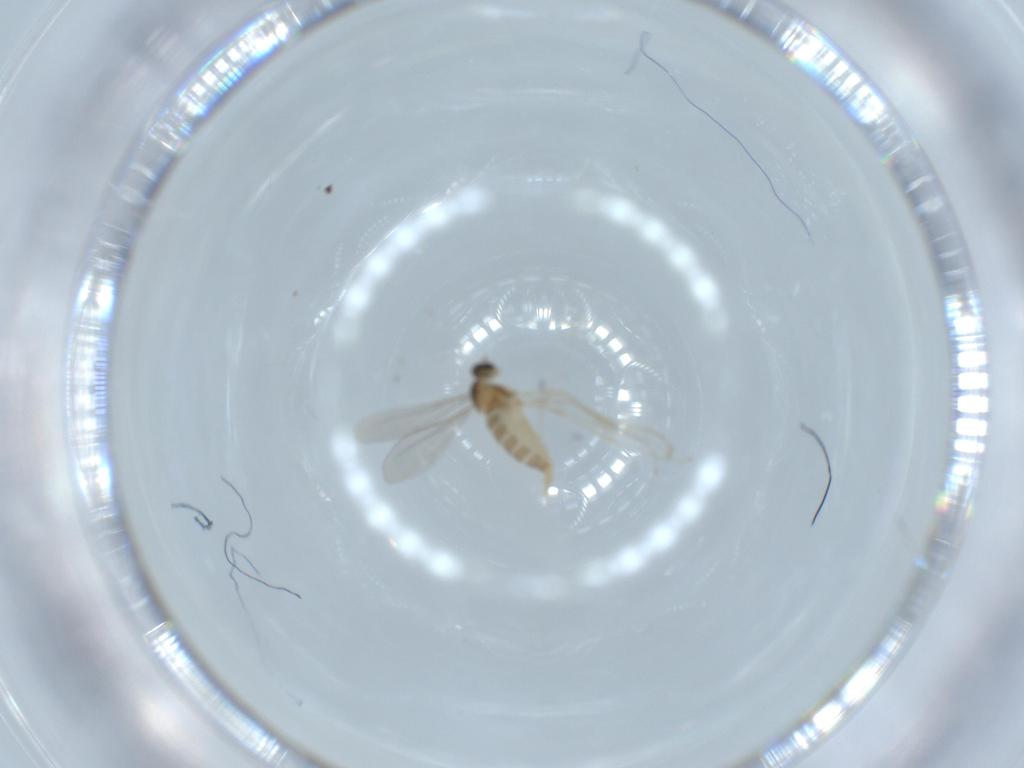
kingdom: Animalia
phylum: Arthropoda
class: Insecta
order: Diptera
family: Cecidomyiidae
